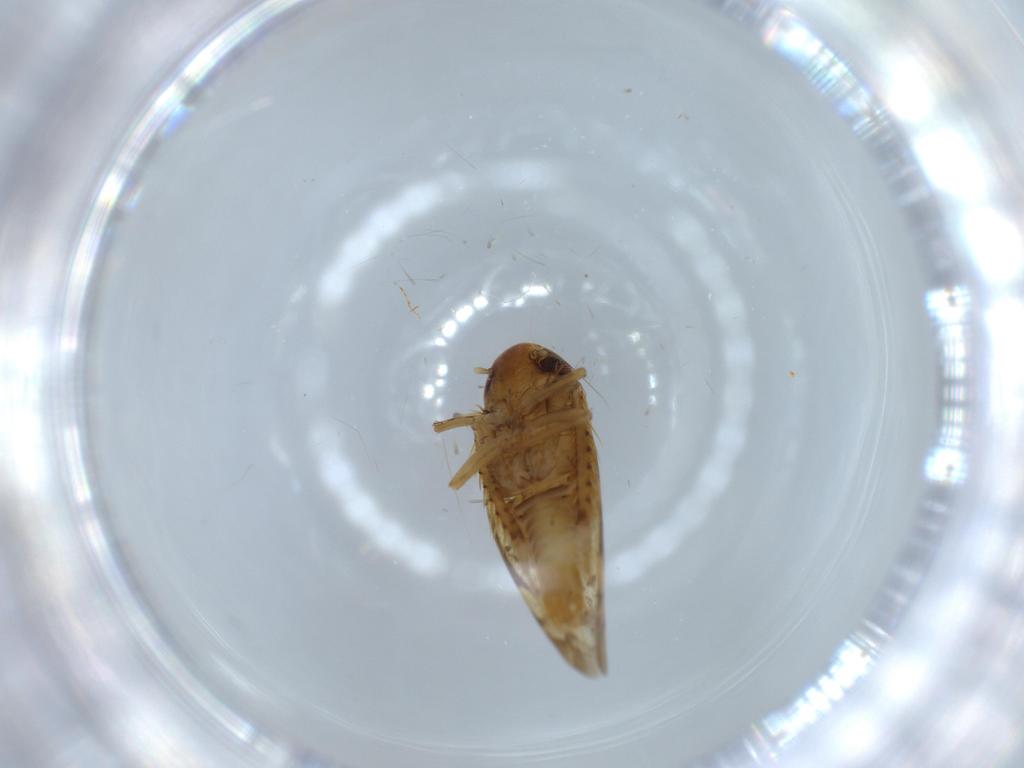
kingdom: Animalia
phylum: Arthropoda
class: Insecta
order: Hemiptera
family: Cicadellidae
